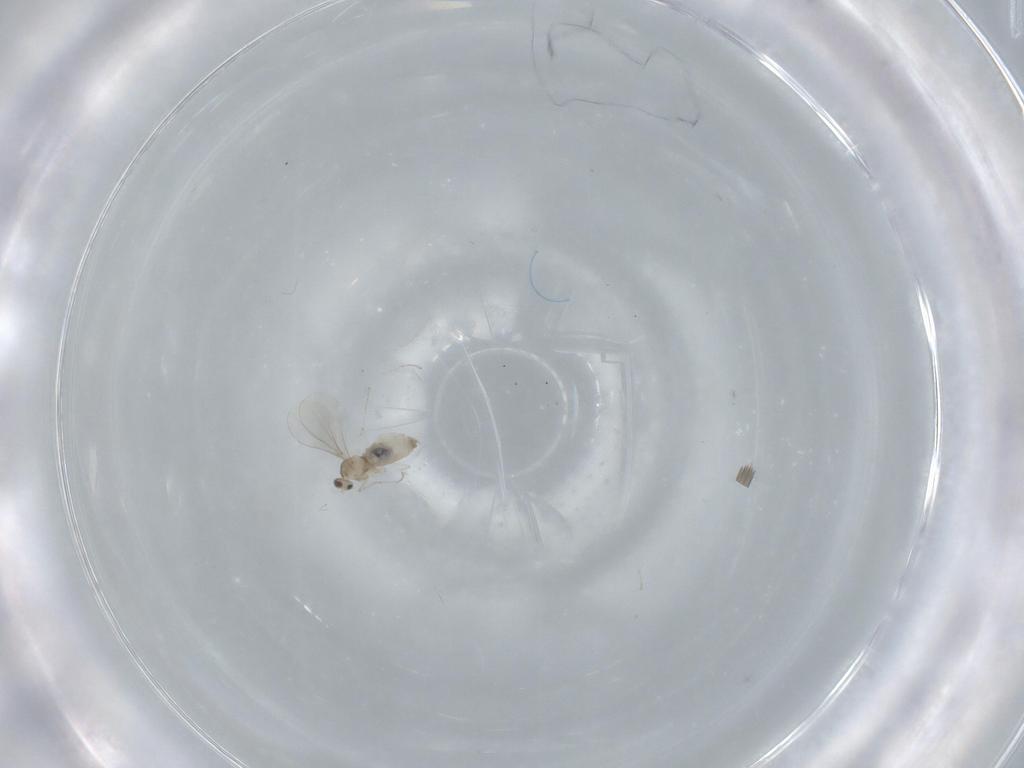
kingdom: Animalia
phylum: Arthropoda
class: Insecta
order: Diptera
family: Cecidomyiidae
